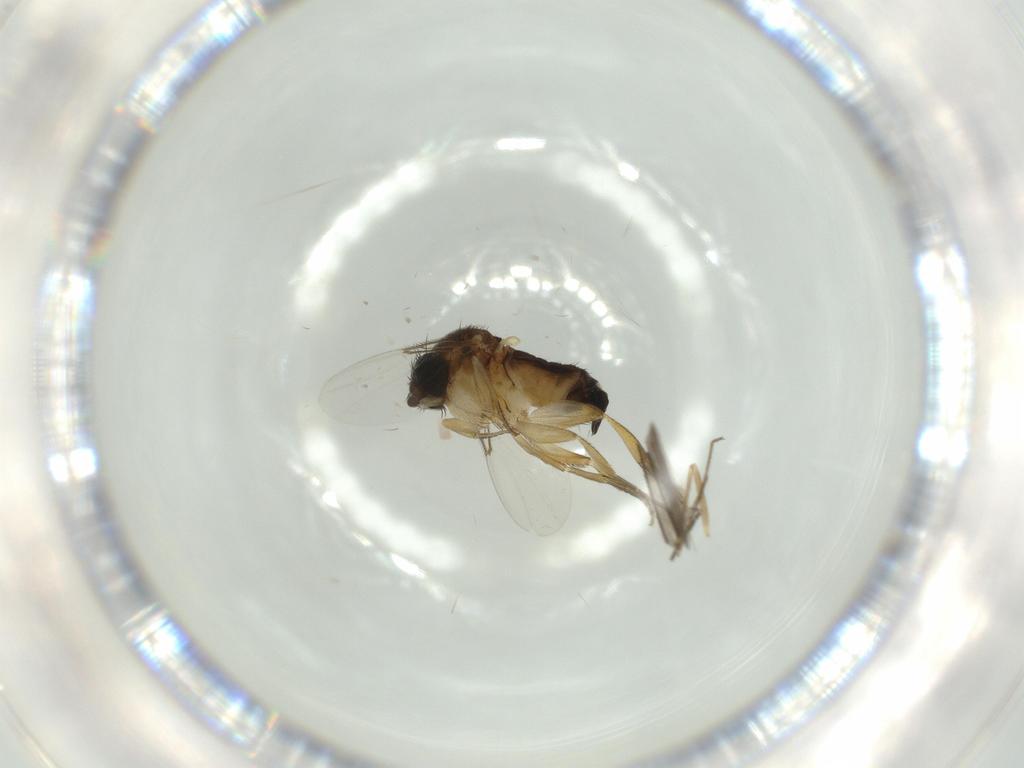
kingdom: Animalia
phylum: Arthropoda
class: Insecta
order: Diptera
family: Phoridae
